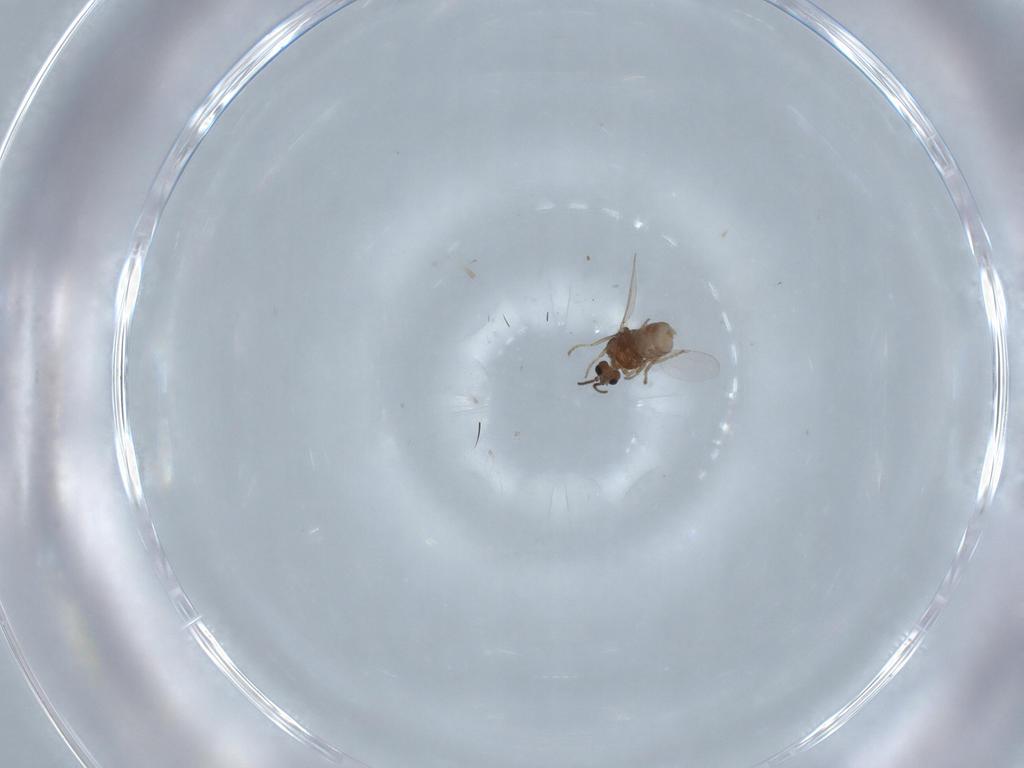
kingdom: Animalia
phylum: Arthropoda
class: Insecta
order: Diptera
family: Ceratopogonidae
